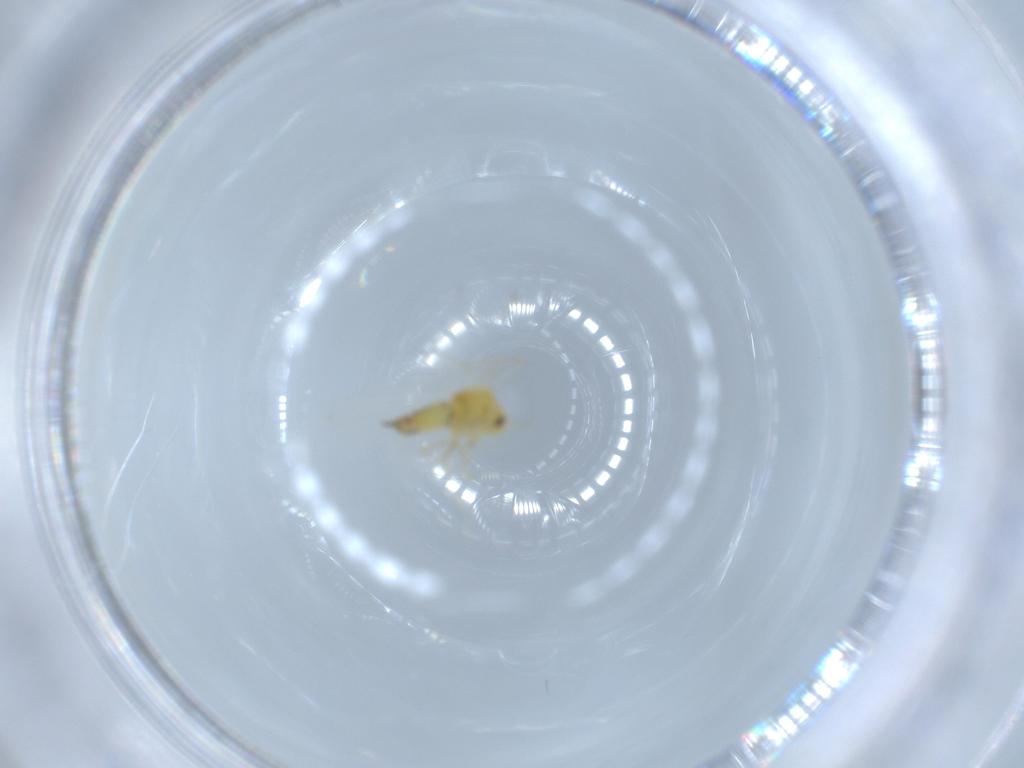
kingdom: Animalia
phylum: Arthropoda
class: Insecta
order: Hemiptera
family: Aleyrodidae
